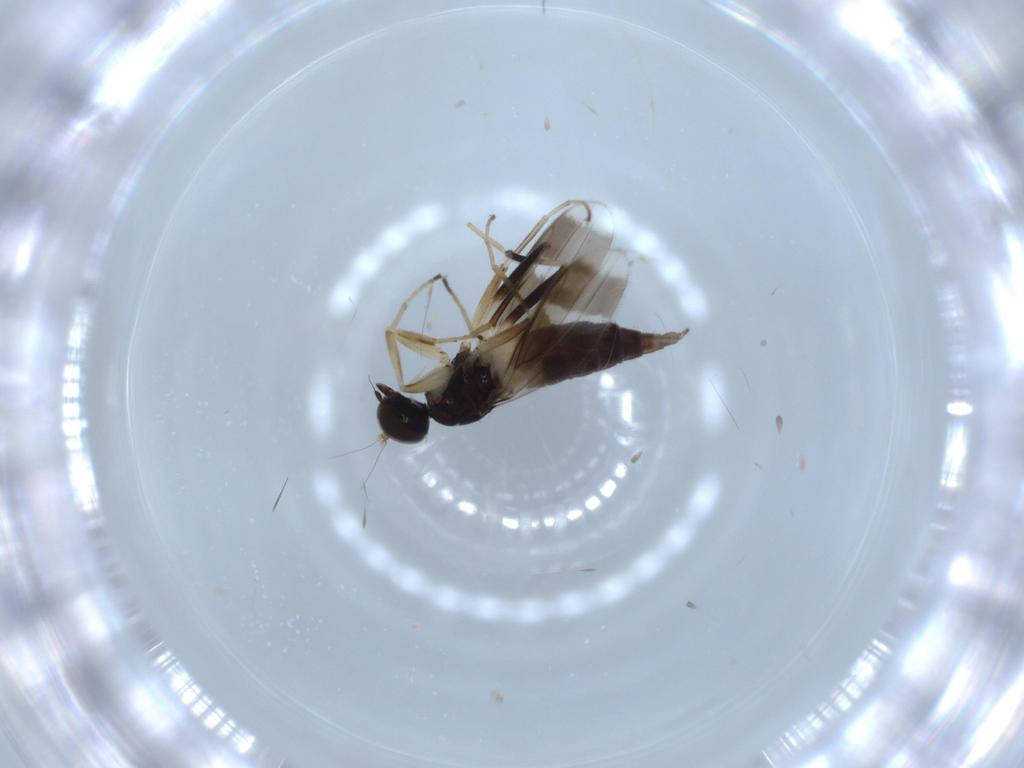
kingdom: Animalia
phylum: Arthropoda
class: Insecta
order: Diptera
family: Hybotidae
